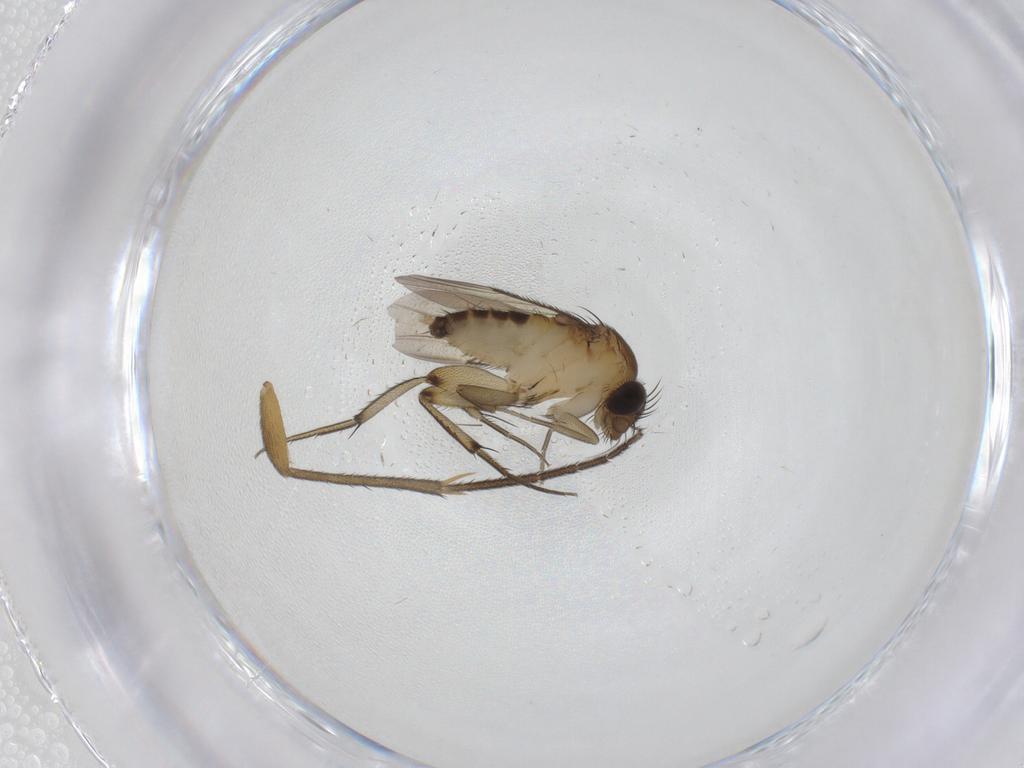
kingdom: Animalia
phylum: Arthropoda
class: Insecta
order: Diptera
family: Phoridae
